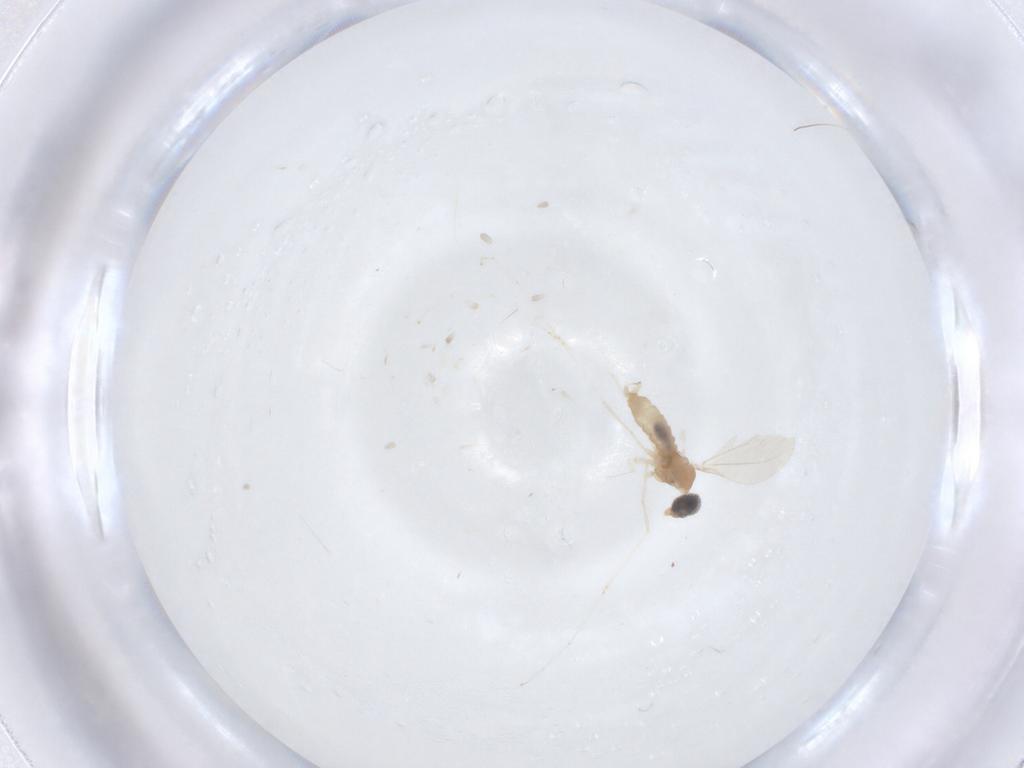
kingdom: Animalia
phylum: Arthropoda
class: Insecta
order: Diptera
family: Cecidomyiidae
